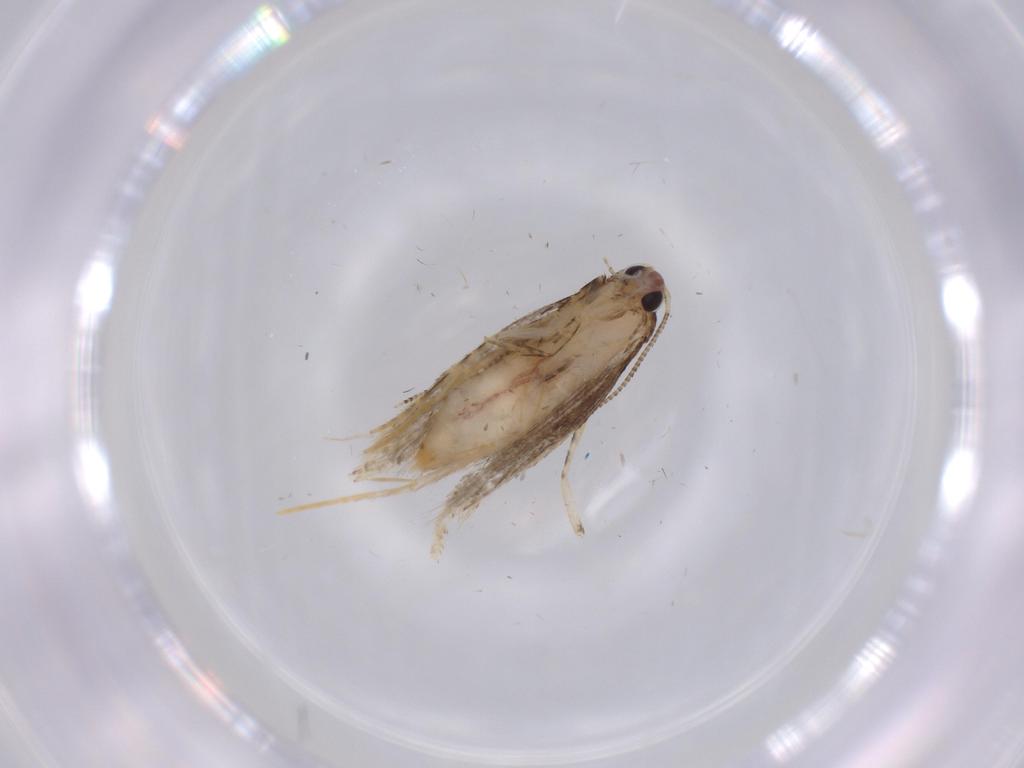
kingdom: Animalia
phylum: Arthropoda
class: Insecta
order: Lepidoptera
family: Tineidae
